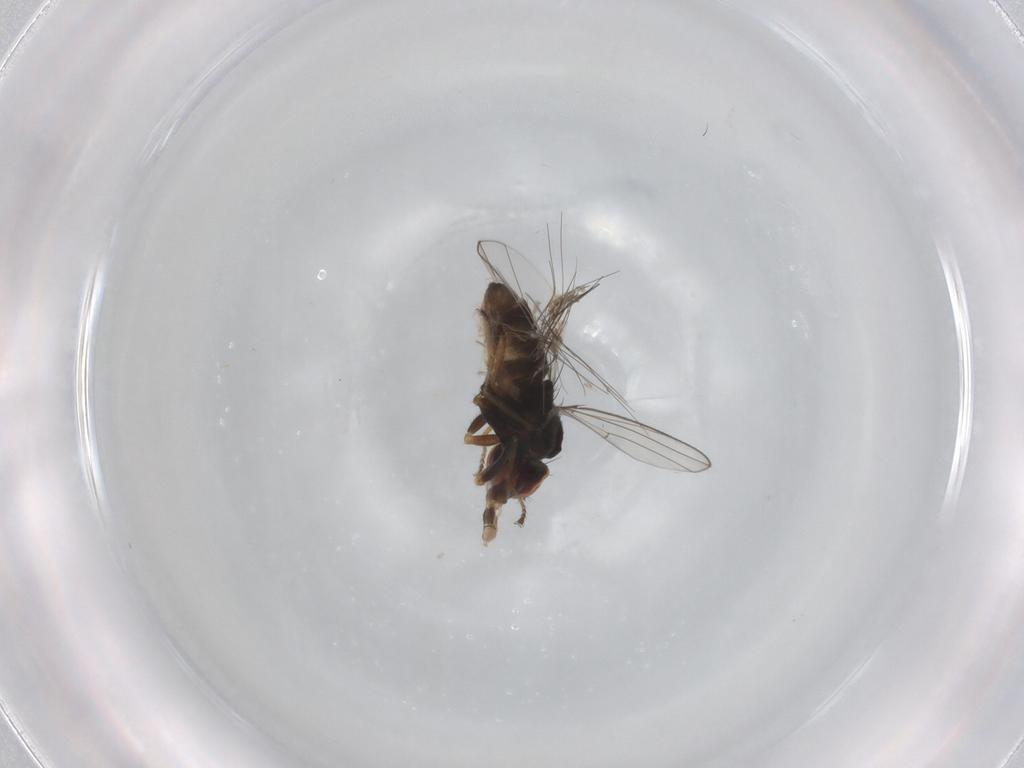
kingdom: Animalia
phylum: Arthropoda
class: Insecta
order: Diptera
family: Ephydridae
